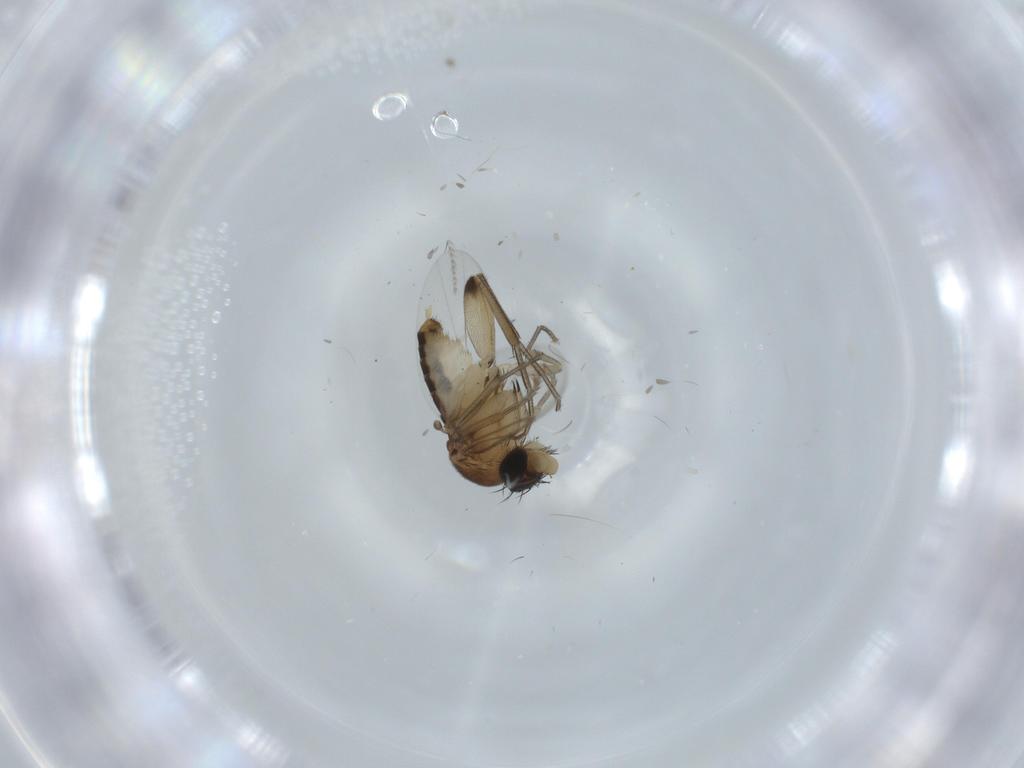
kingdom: Animalia
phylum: Arthropoda
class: Insecta
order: Diptera
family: Phoridae
